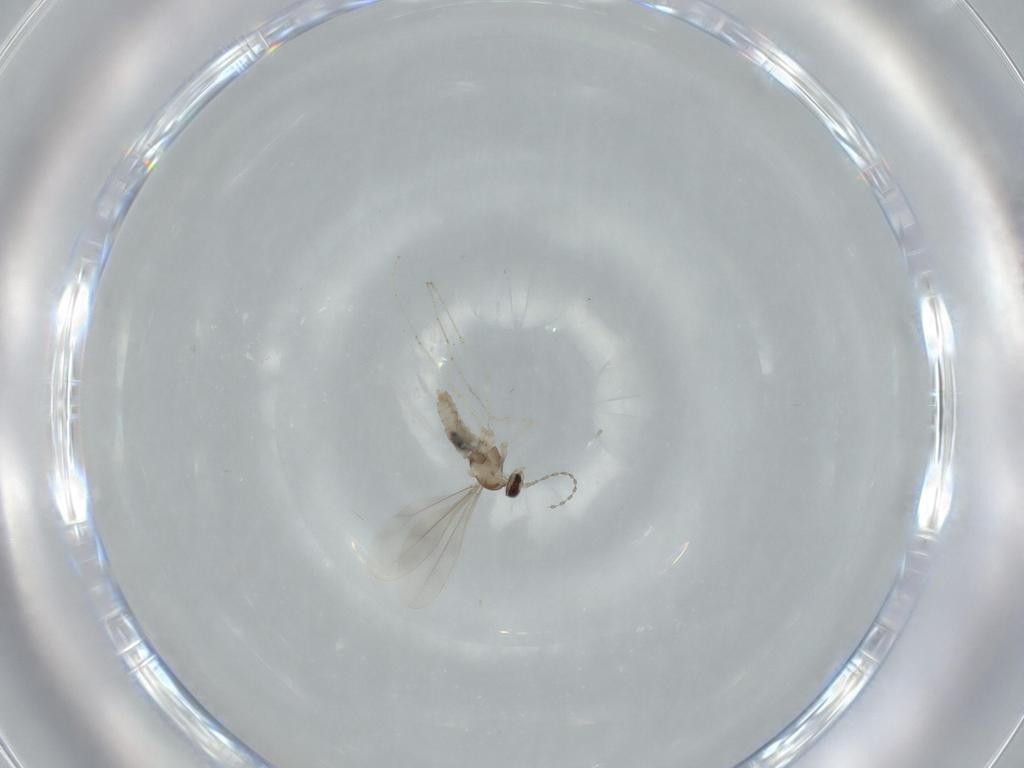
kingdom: Animalia
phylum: Arthropoda
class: Insecta
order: Diptera
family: Cecidomyiidae
